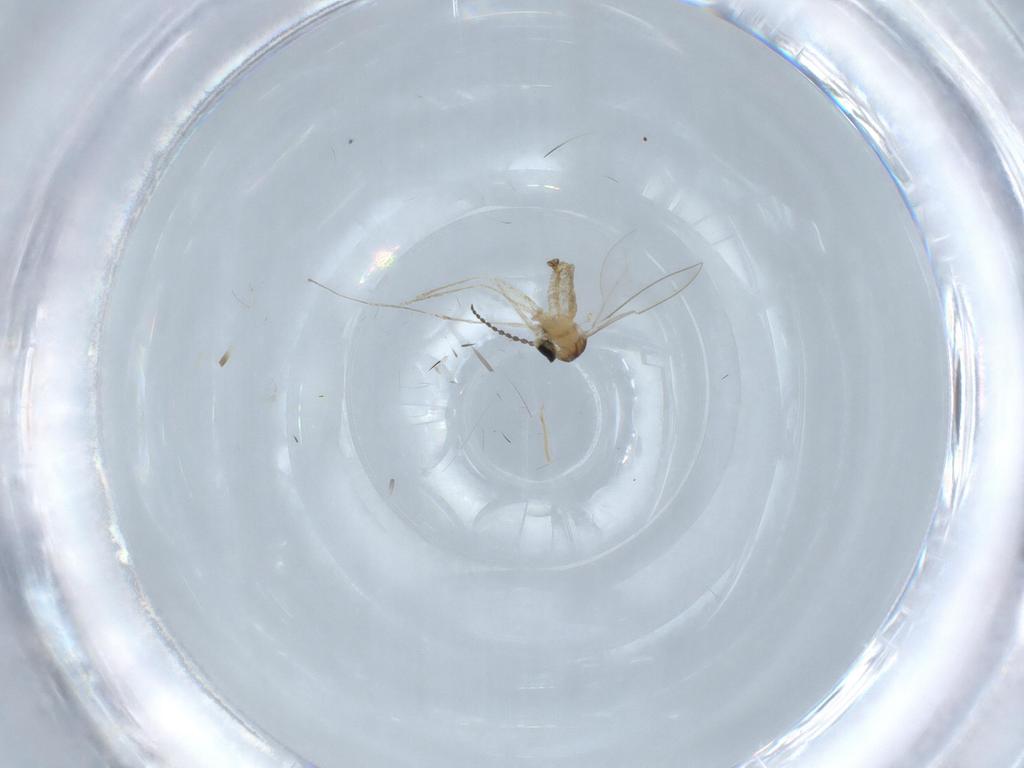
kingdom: Animalia
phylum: Arthropoda
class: Insecta
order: Diptera
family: Cecidomyiidae
